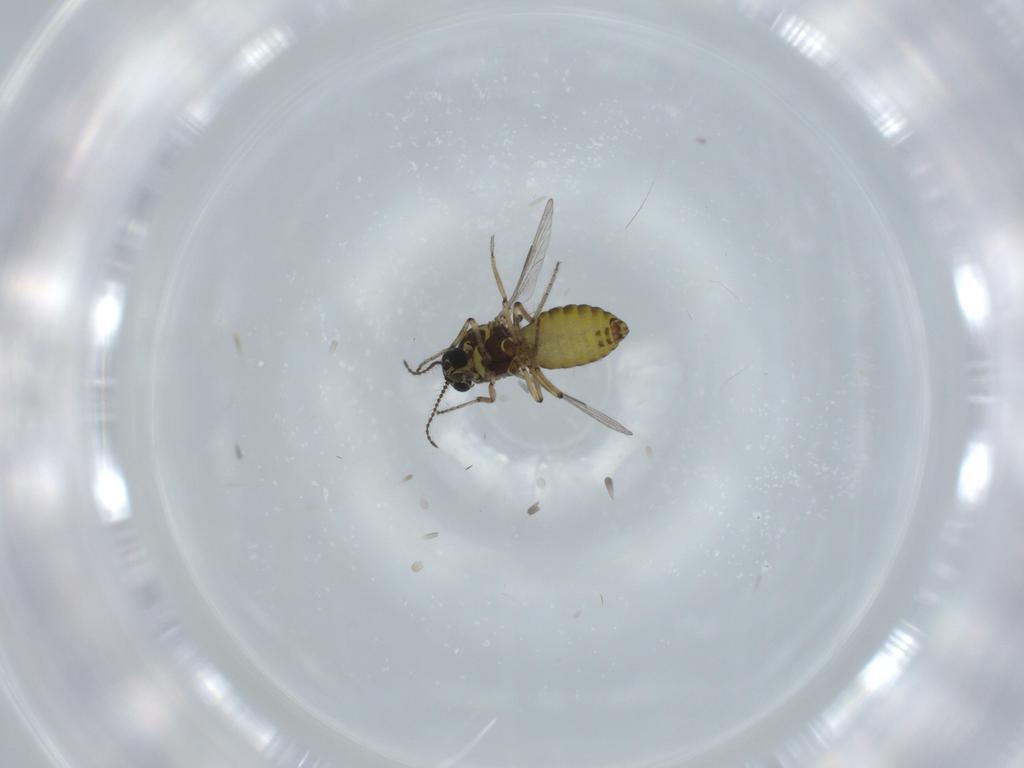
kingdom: Animalia
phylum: Arthropoda
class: Insecta
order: Diptera
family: Ceratopogonidae
